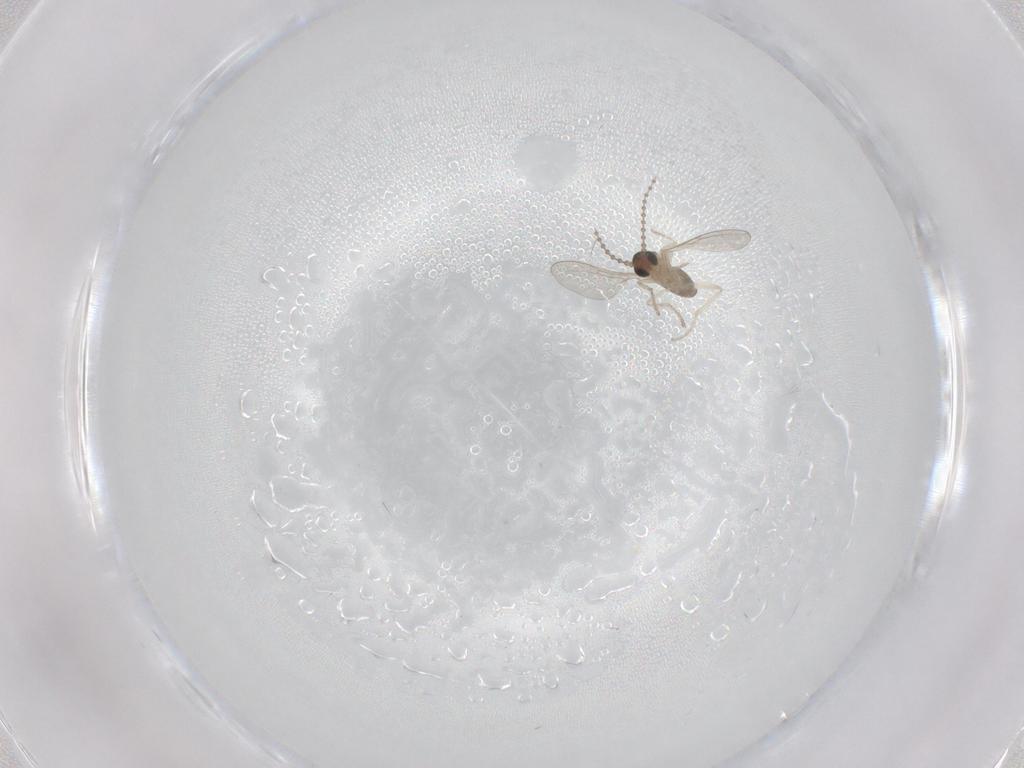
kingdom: Animalia
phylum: Arthropoda
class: Insecta
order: Diptera
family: Cecidomyiidae
